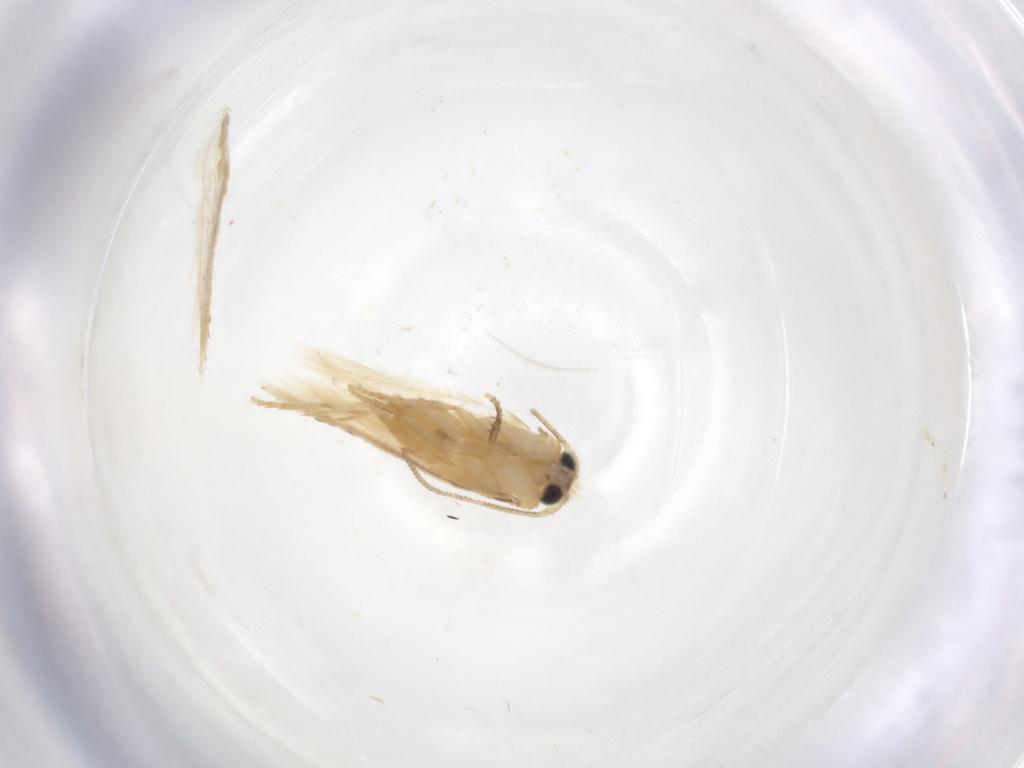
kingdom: Animalia
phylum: Arthropoda
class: Insecta
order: Lepidoptera
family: Nepticulidae
